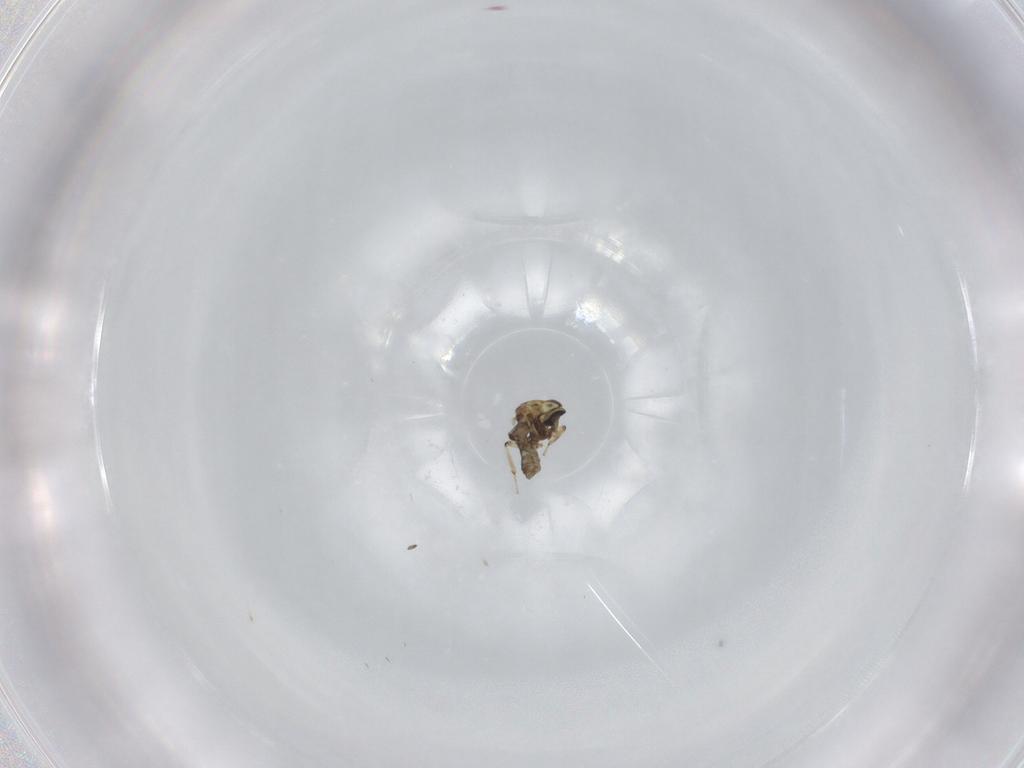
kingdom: Animalia
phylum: Arthropoda
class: Insecta
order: Diptera
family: Ceratopogonidae
